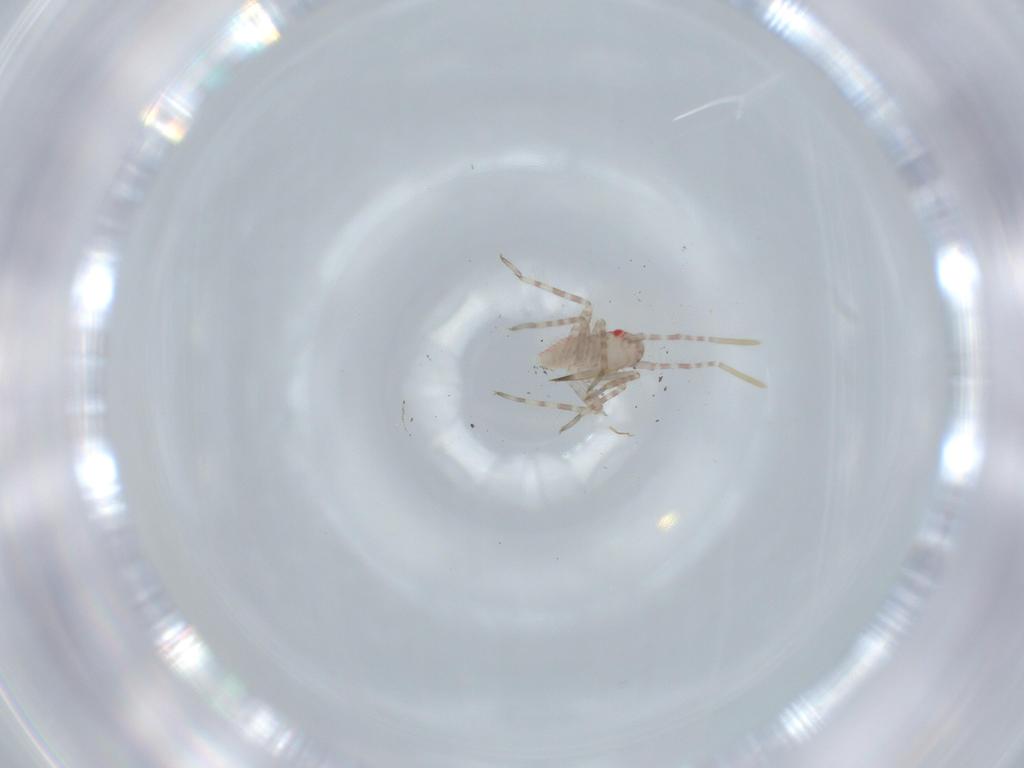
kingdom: Animalia
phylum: Arthropoda
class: Insecta
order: Hemiptera
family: Miridae
